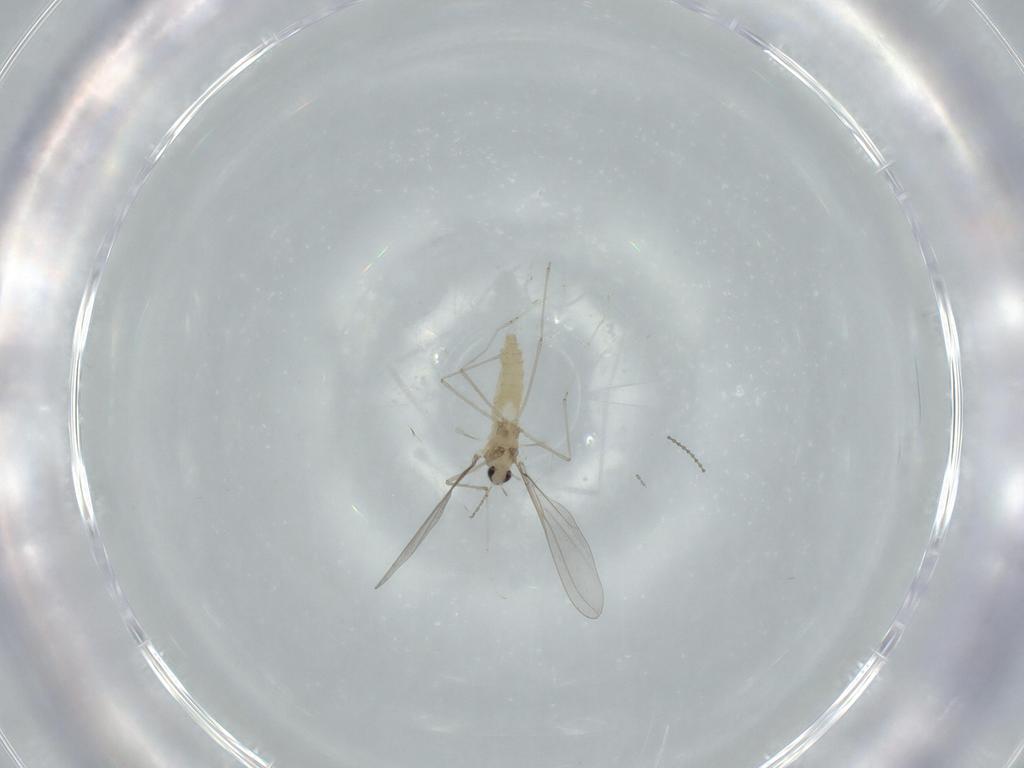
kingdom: Animalia
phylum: Arthropoda
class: Insecta
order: Diptera
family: Cecidomyiidae
